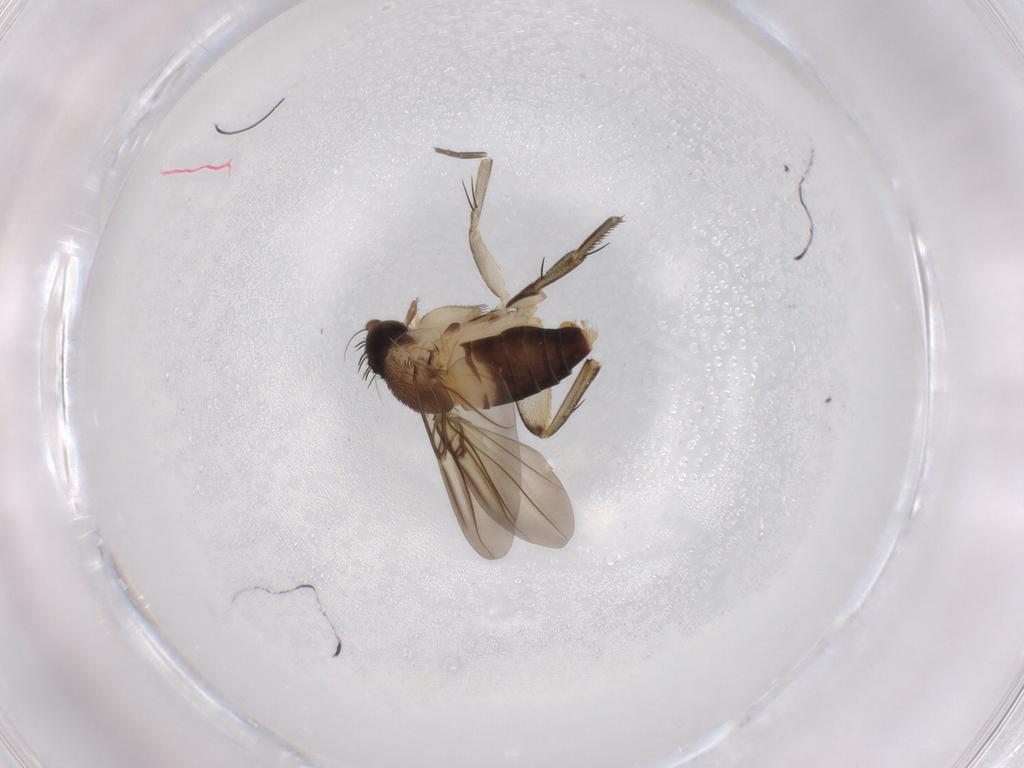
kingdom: Animalia
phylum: Arthropoda
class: Insecta
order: Diptera
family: Phoridae
